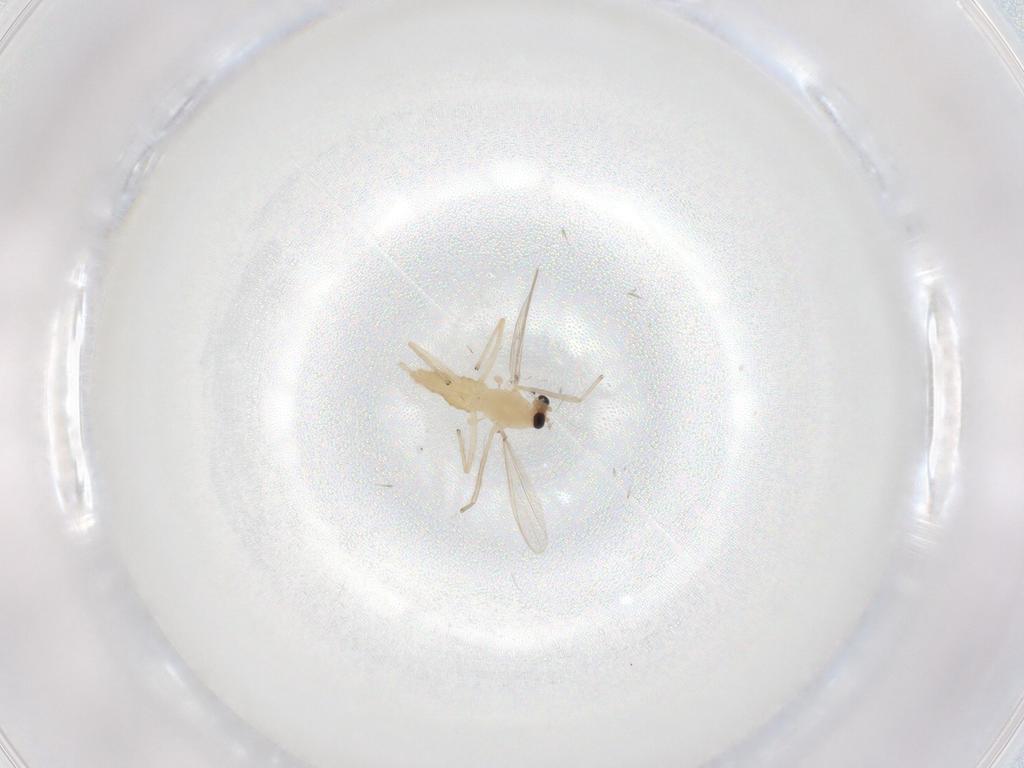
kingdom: Animalia
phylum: Arthropoda
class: Insecta
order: Diptera
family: Chironomidae
